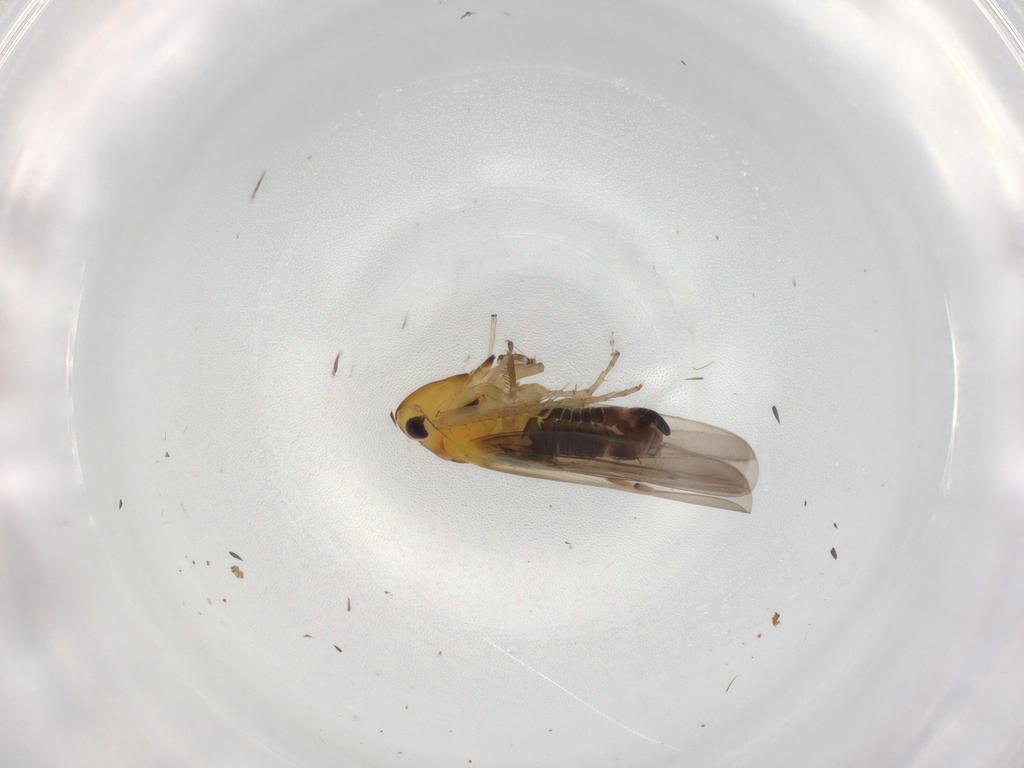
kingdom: Animalia
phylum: Arthropoda
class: Insecta
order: Hemiptera
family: Cicadellidae
